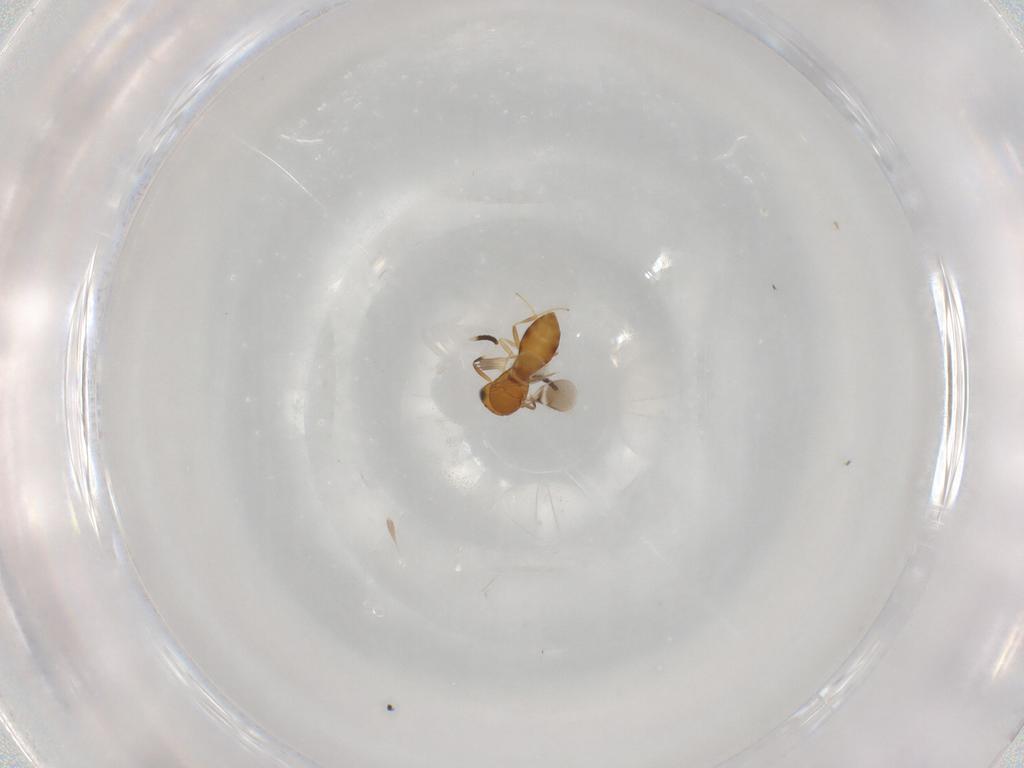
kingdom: Animalia
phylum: Arthropoda
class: Insecta
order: Hymenoptera
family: Scelionidae
